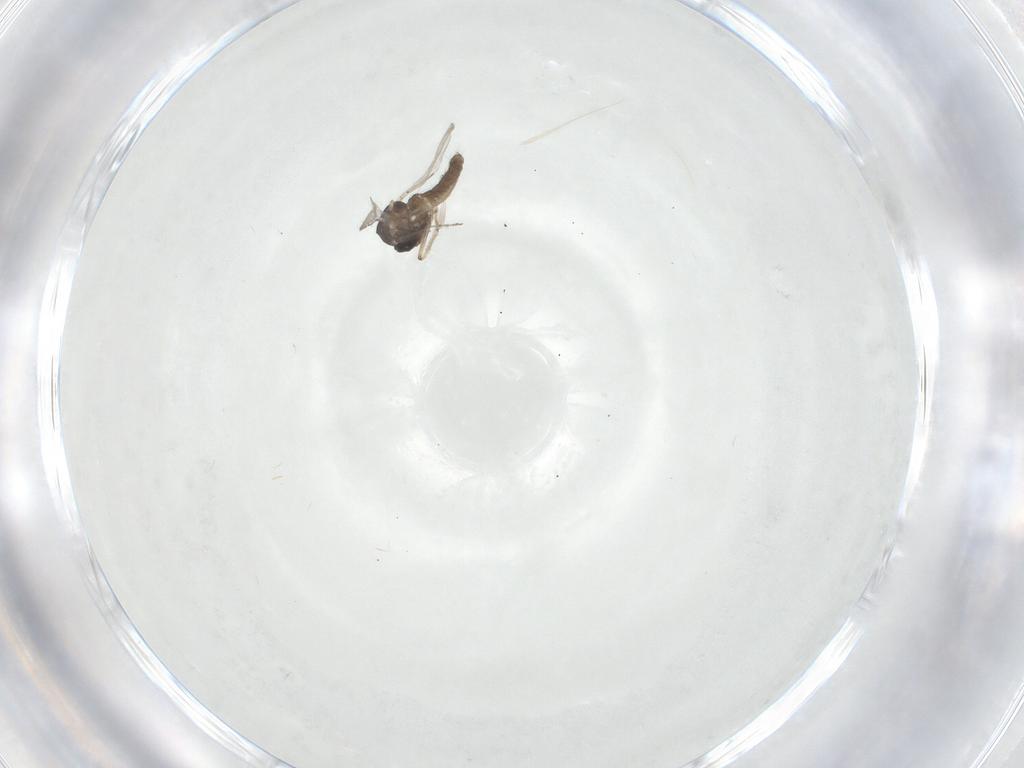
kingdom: Animalia
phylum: Arthropoda
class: Insecta
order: Diptera
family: Ceratopogonidae
